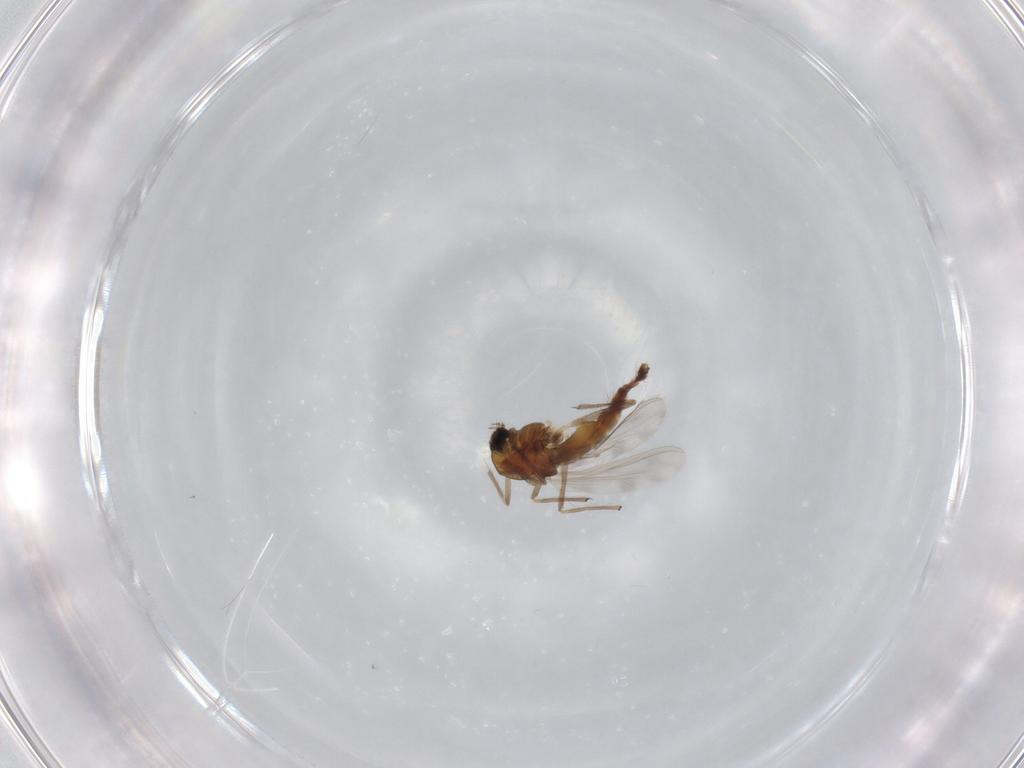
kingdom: Animalia
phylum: Arthropoda
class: Insecta
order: Diptera
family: Chironomidae
